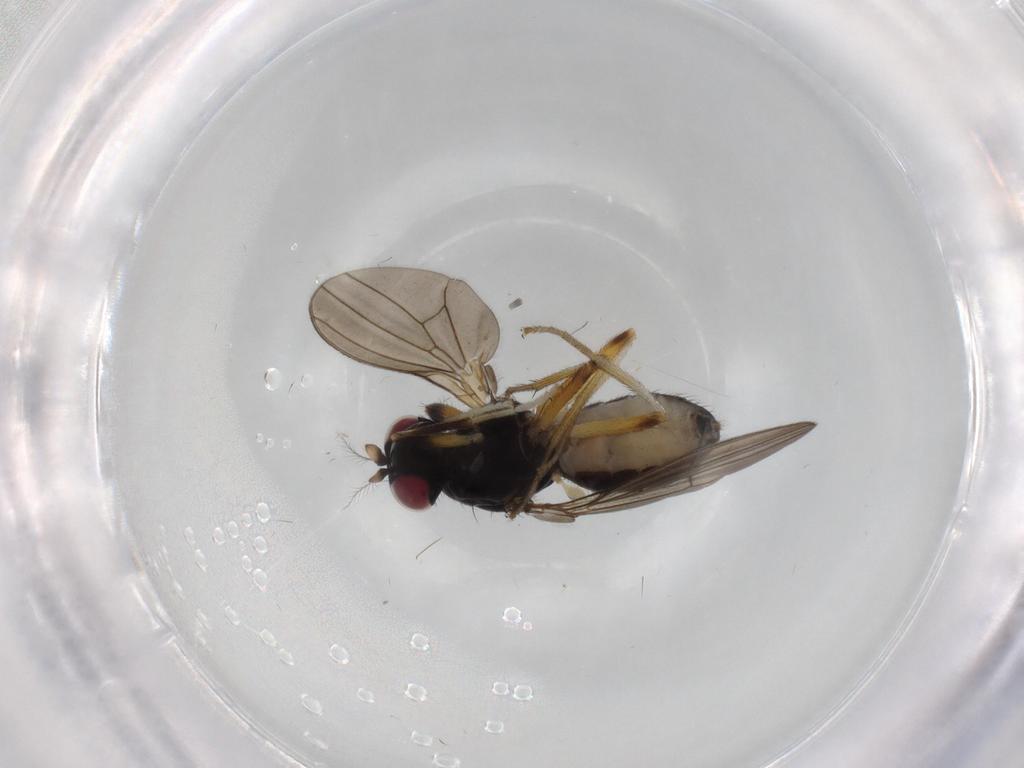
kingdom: Animalia
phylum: Arthropoda
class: Insecta
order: Diptera
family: Lauxaniidae
